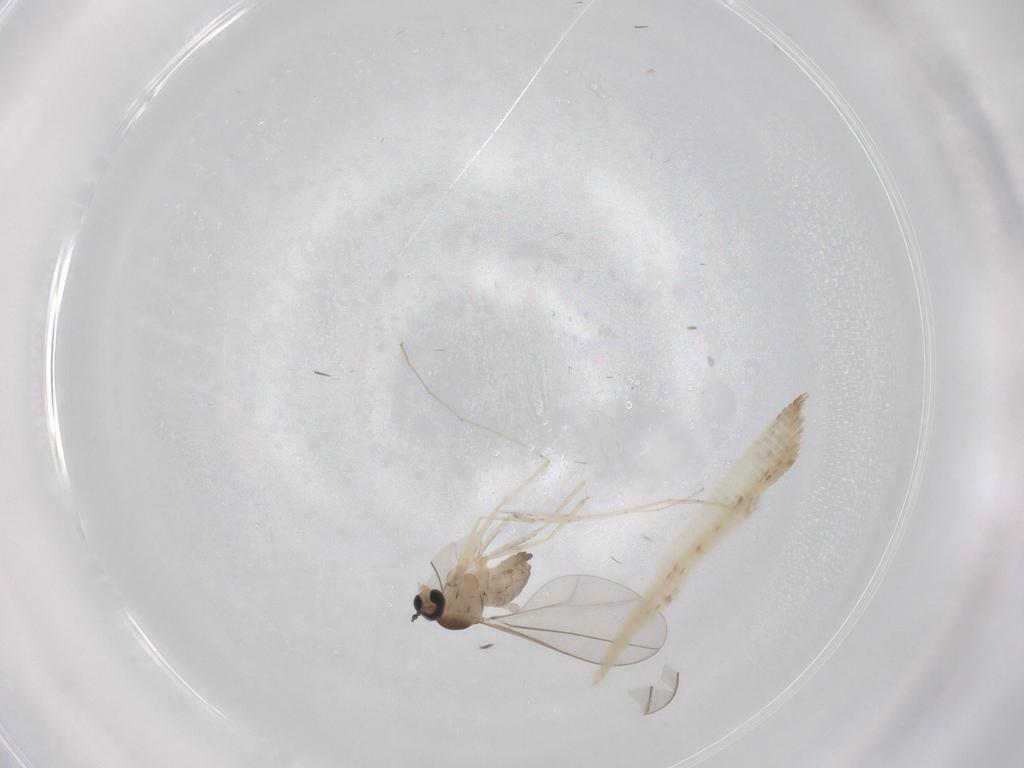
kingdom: Animalia
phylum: Arthropoda
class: Insecta
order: Diptera
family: Cecidomyiidae
